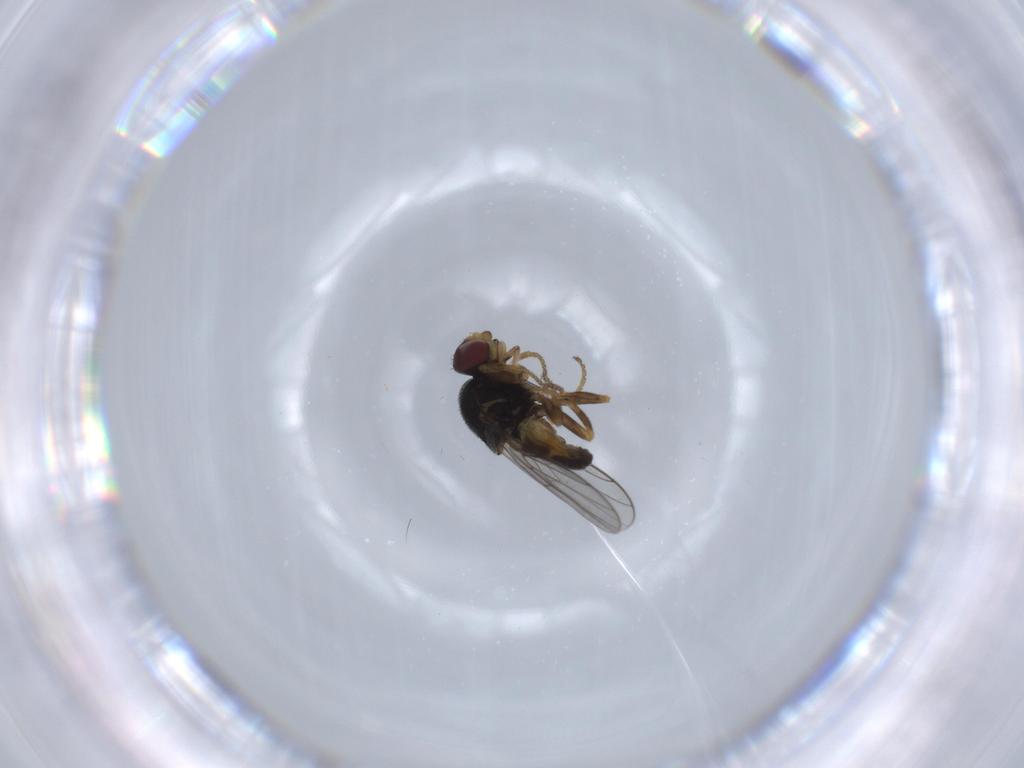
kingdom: Animalia
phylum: Arthropoda
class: Insecta
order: Diptera
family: Chloropidae
